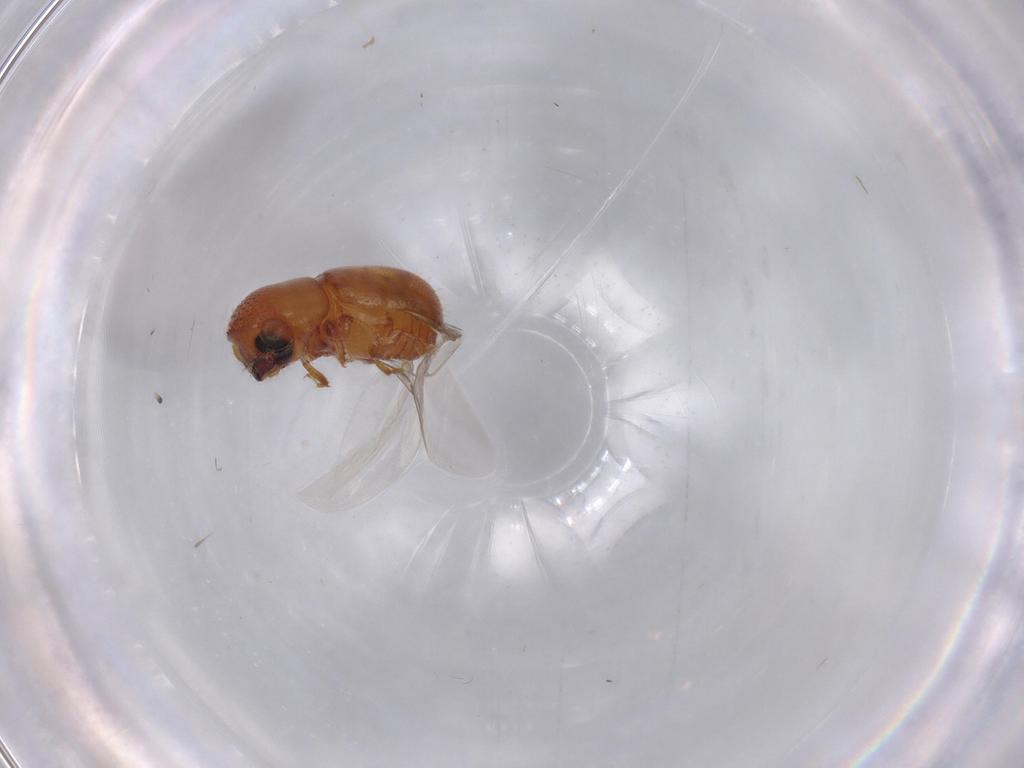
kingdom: Animalia
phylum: Arthropoda
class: Insecta
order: Coleoptera
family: Curculionidae
